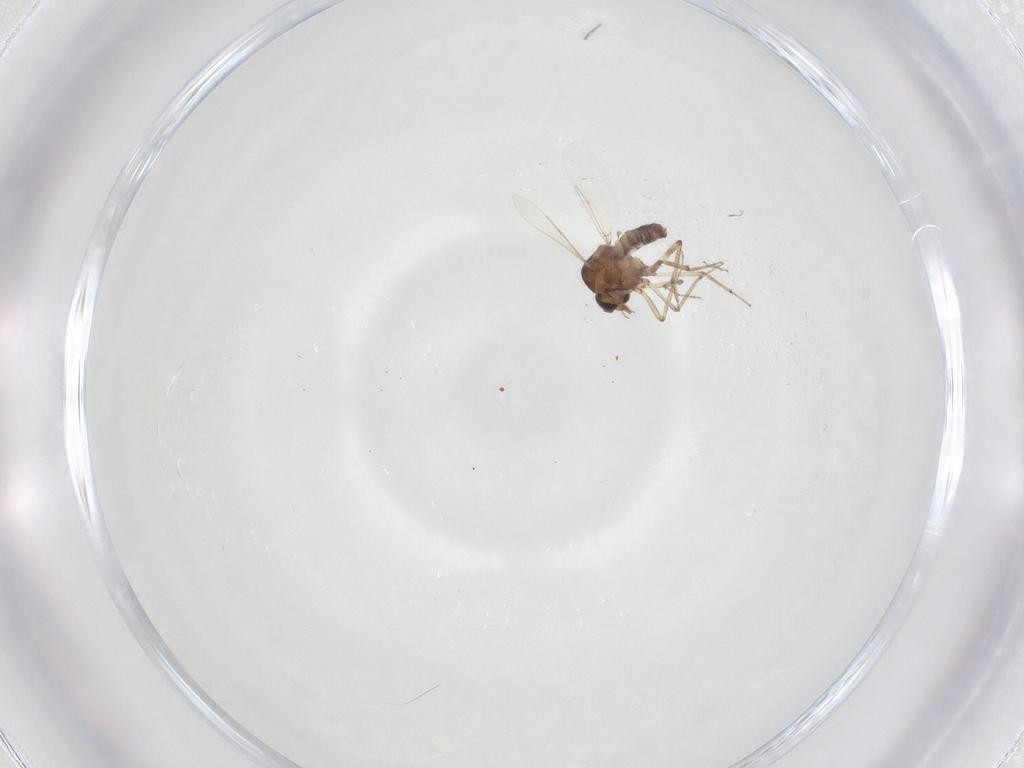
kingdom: Animalia
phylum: Arthropoda
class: Insecta
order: Diptera
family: Ceratopogonidae
